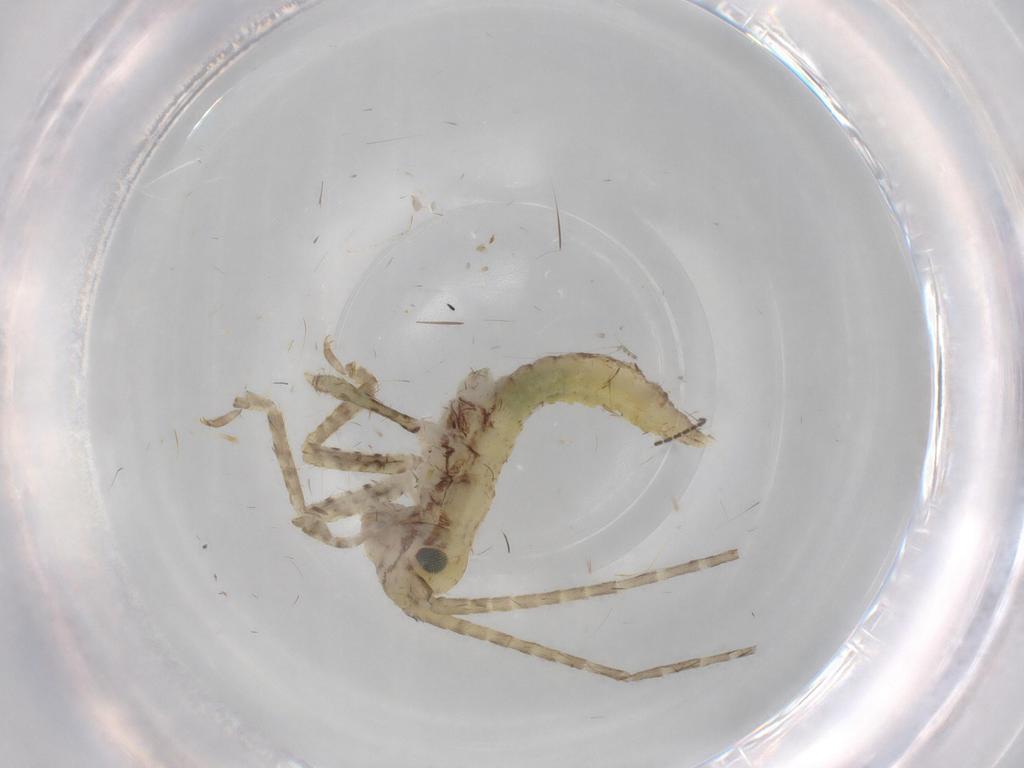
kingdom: Animalia
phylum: Arthropoda
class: Insecta
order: Orthoptera
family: Gryllidae
